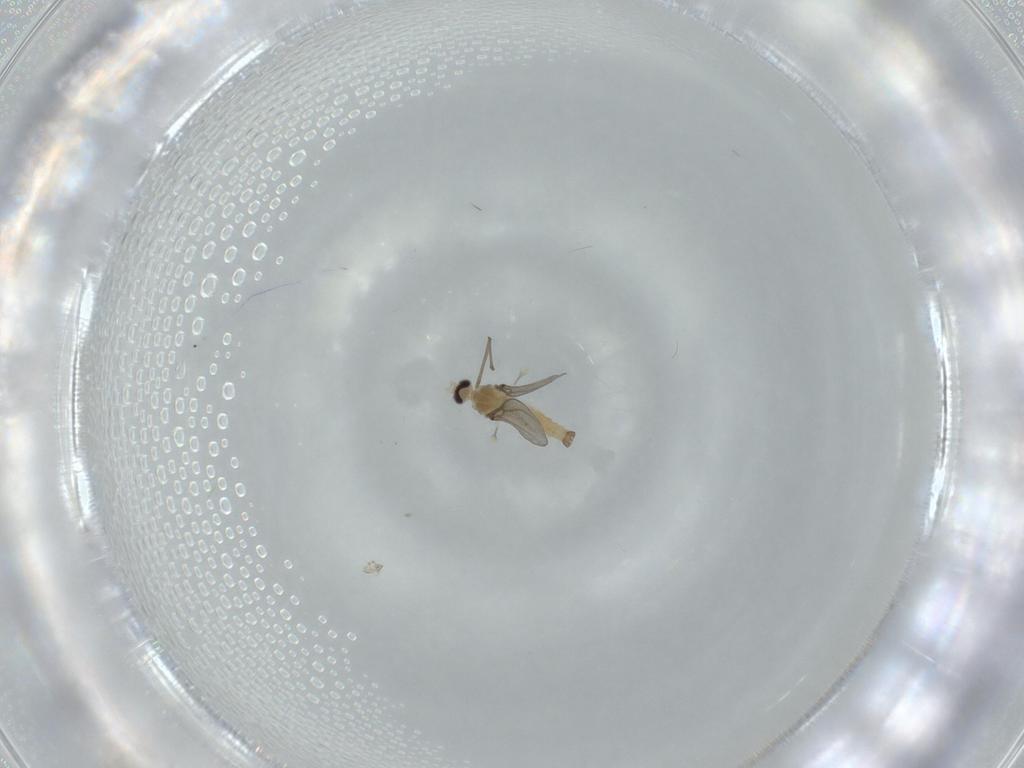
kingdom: Animalia
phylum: Arthropoda
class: Insecta
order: Diptera
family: Cecidomyiidae
